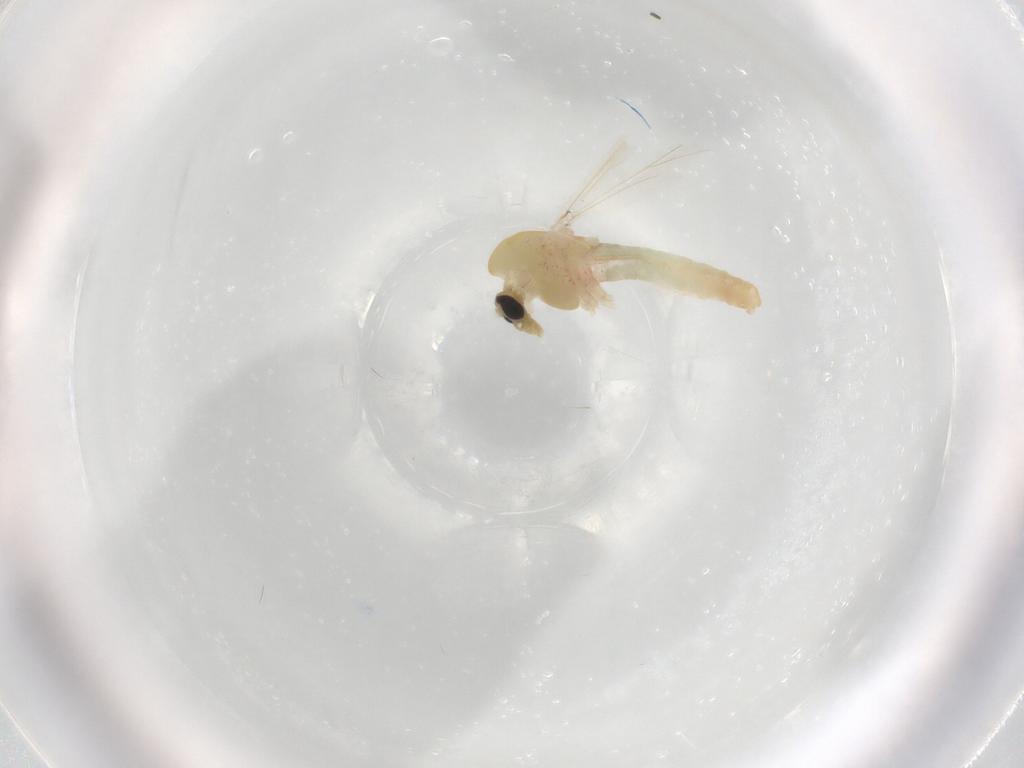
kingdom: Animalia
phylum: Arthropoda
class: Insecta
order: Diptera
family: Chironomidae
